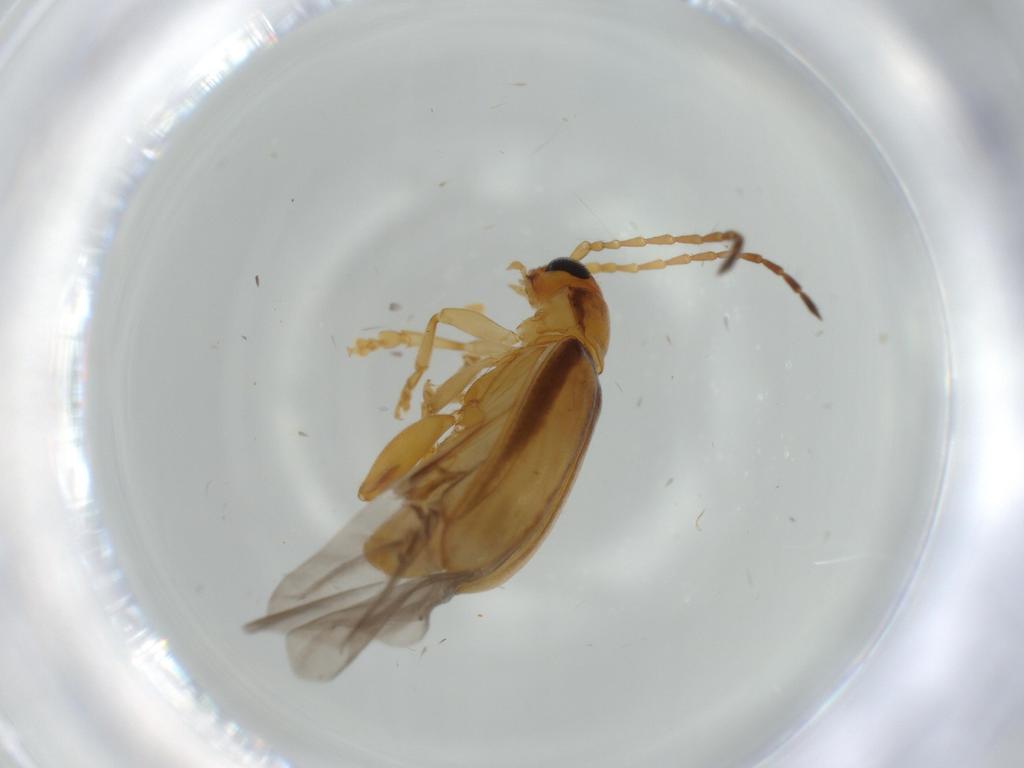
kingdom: Animalia
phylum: Arthropoda
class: Insecta
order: Coleoptera
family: Chrysomelidae
